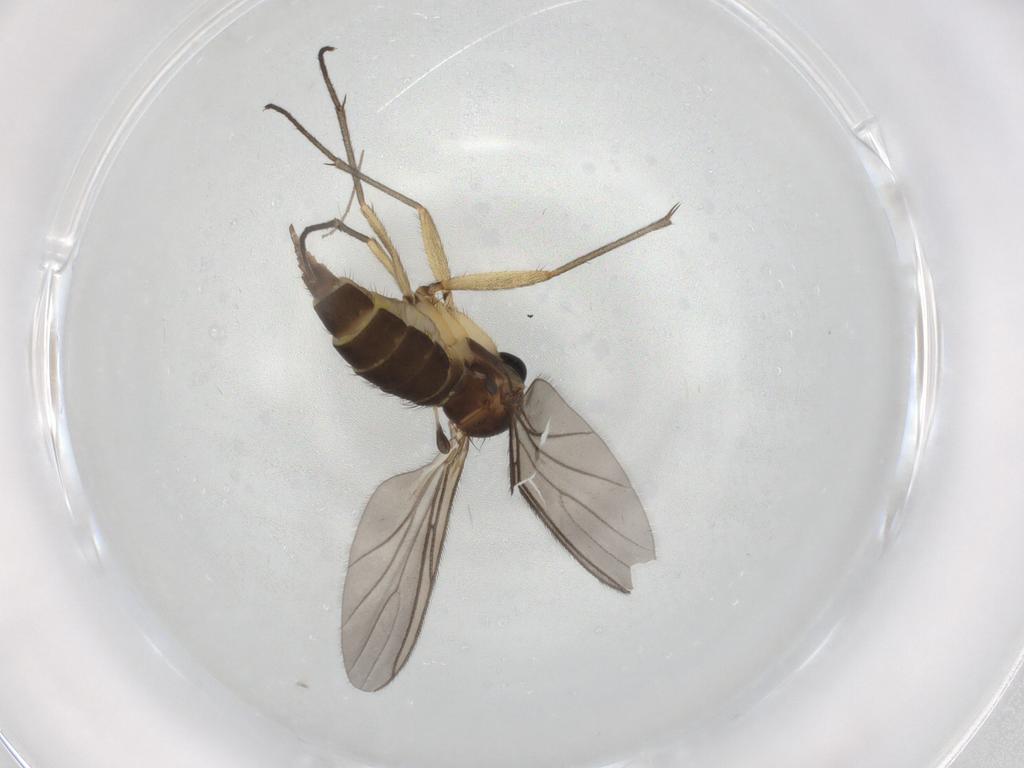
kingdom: Animalia
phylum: Arthropoda
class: Insecta
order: Diptera
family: Sciaridae
